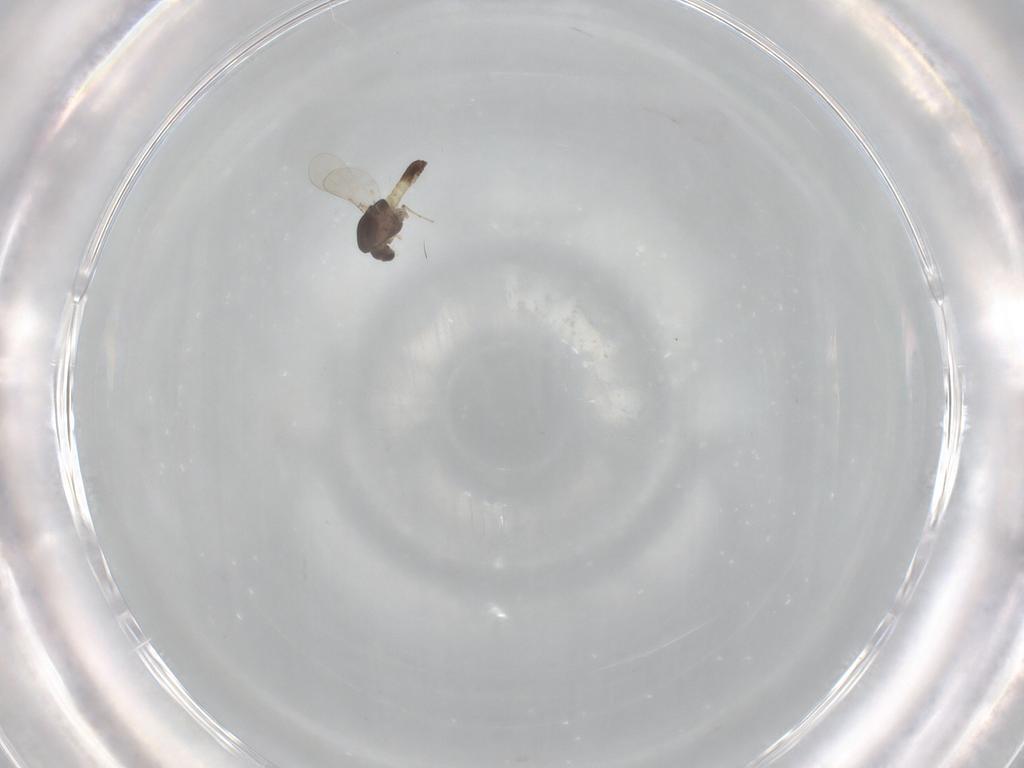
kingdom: Animalia
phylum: Arthropoda
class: Insecta
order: Diptera
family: Chironomidae
